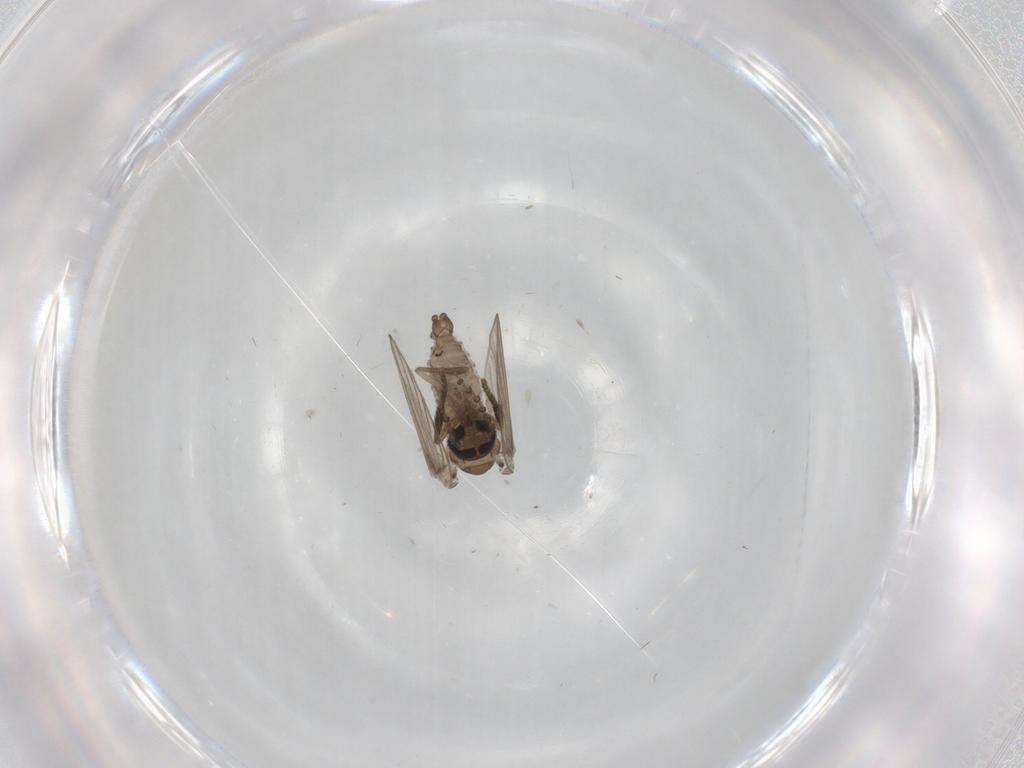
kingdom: Animalia
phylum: Arthropoda
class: Insecta
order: Diptera
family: Psychodidae
